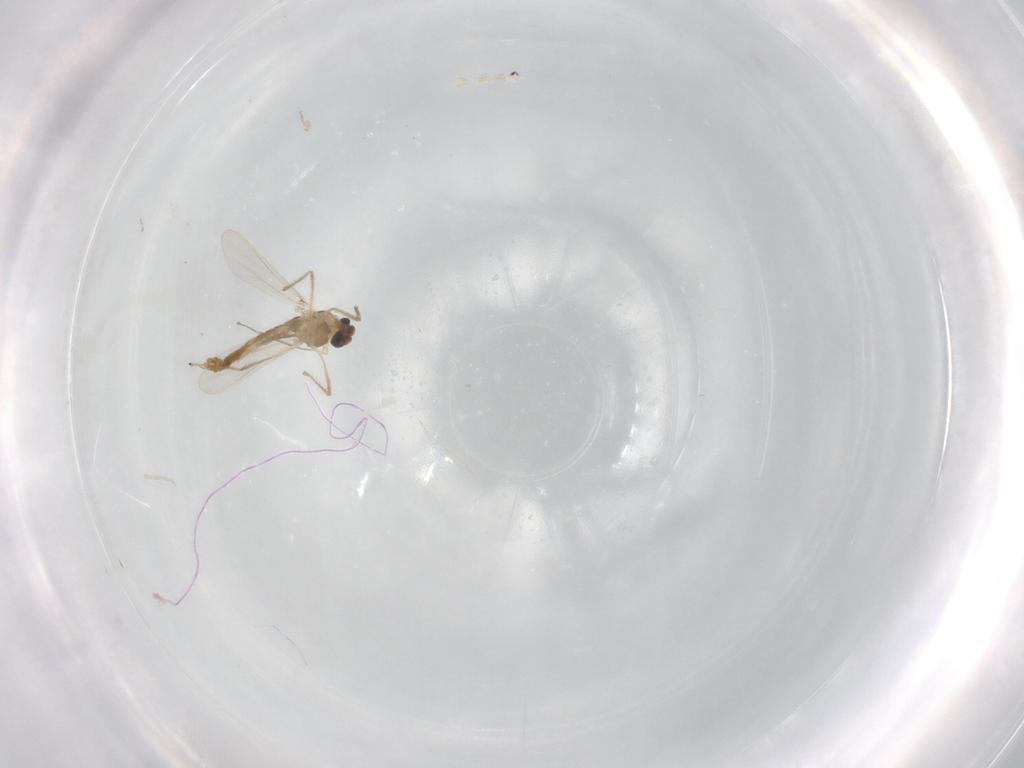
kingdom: Animalia
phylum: Arthropoda
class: Insecta
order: Diptera
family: Chironomidae
